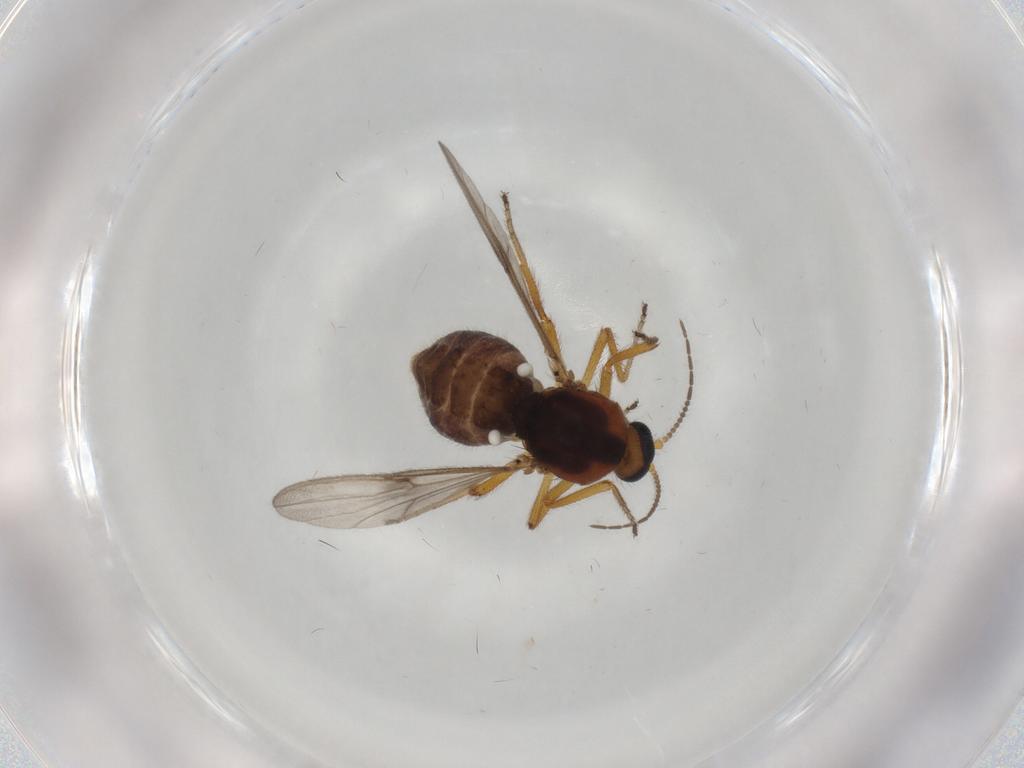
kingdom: Animalia
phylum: Arthropoda
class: Insecta
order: Diptera
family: Ceratopogonidae
